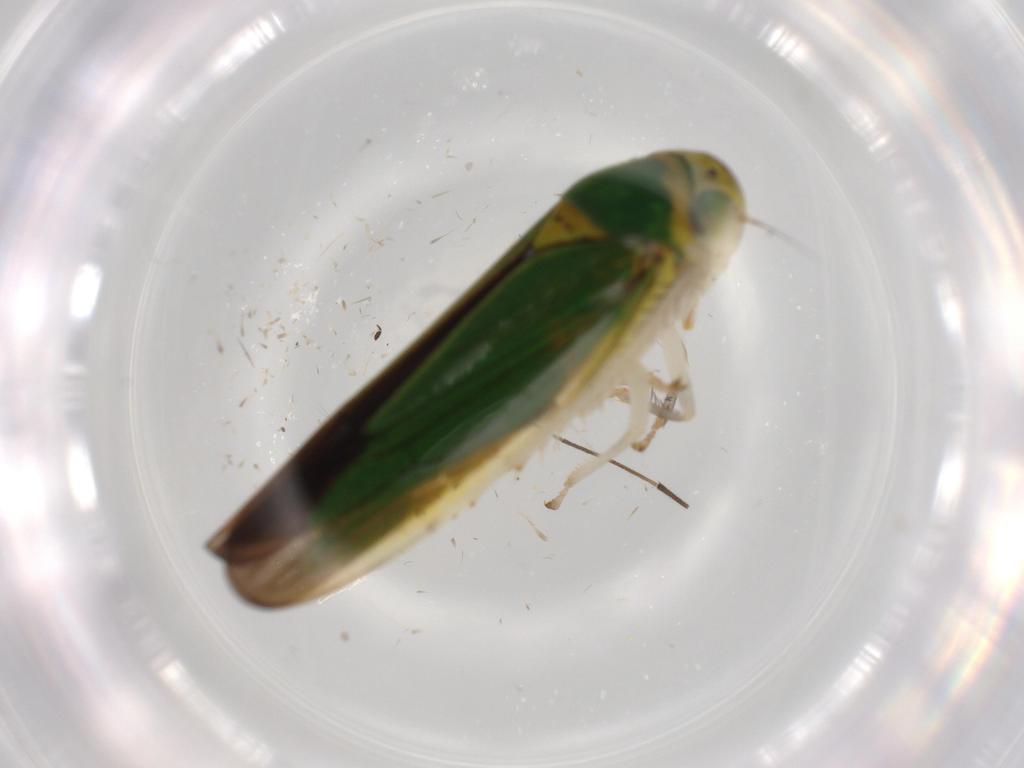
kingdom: Animalia
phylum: Arthropoda
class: Insecta
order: Hemiptera
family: Cicadellidae
